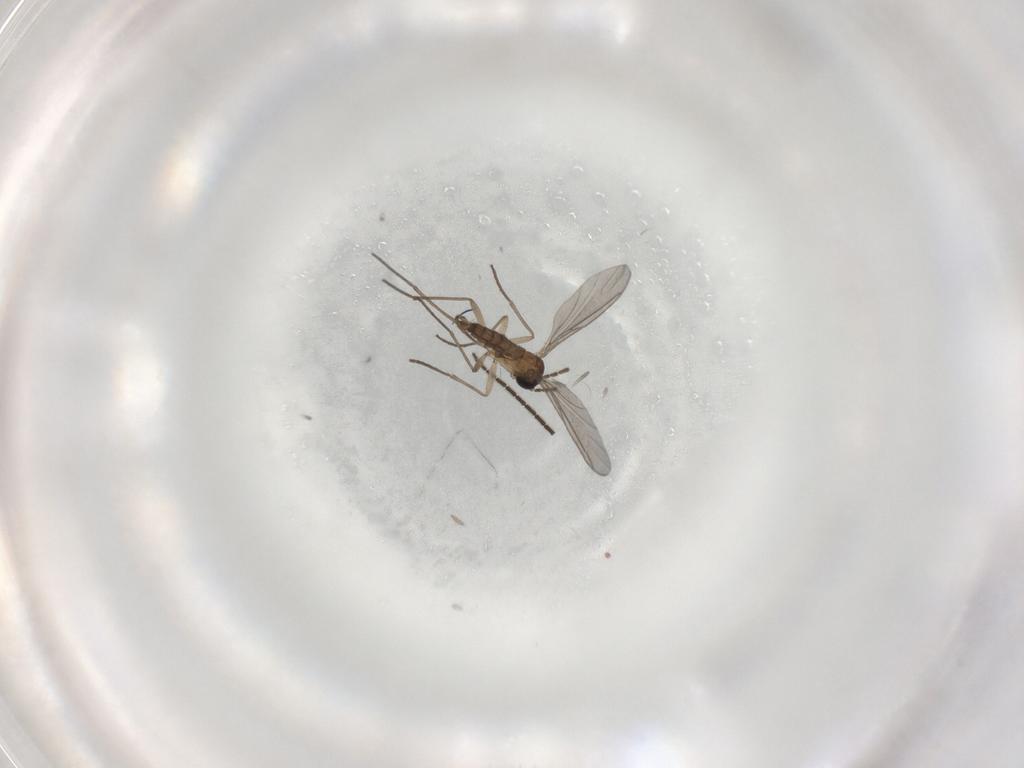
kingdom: Animalia
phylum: Arthropoda
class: Insecta
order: Diptera
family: Sciaridae
